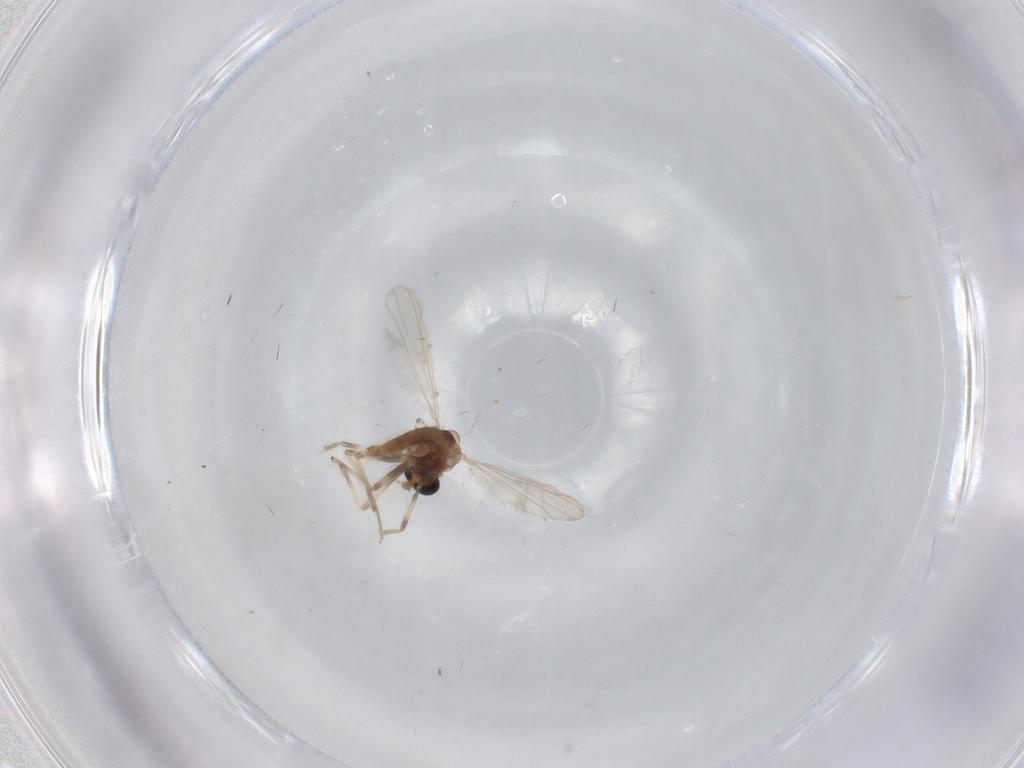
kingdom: Animalia
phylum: Arthropoda
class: Insecta
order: Diptera
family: Chironomidae
